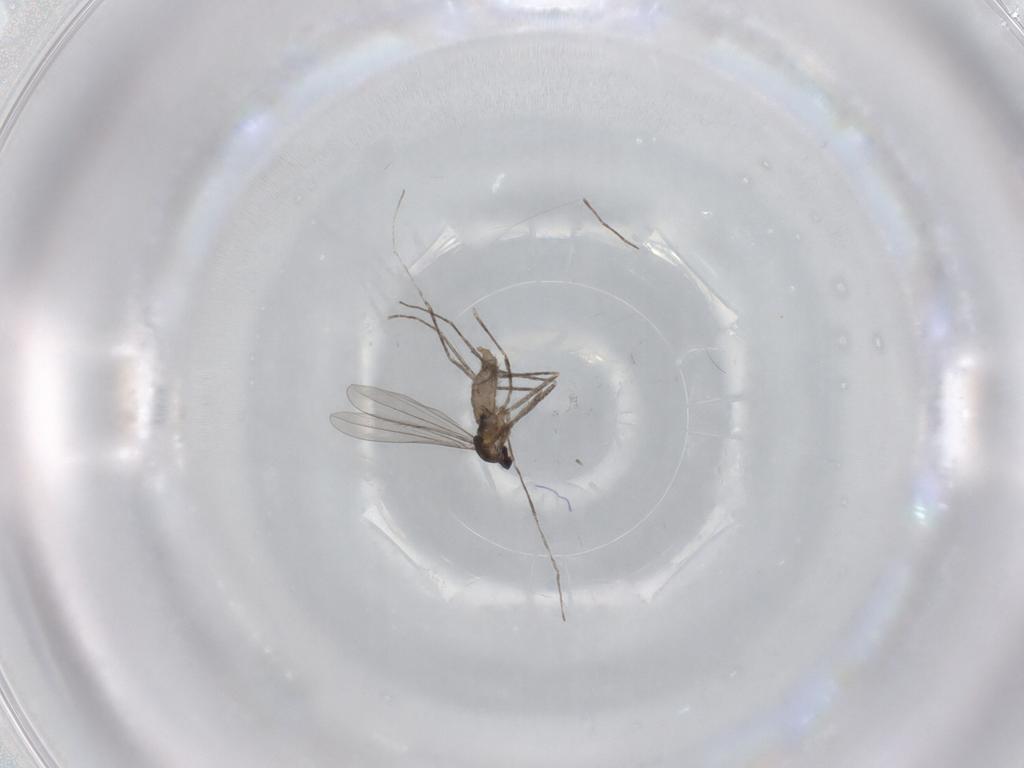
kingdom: Animalia
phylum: Arthropoda
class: Insecta
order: Diptera
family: Cecidomyiidae
